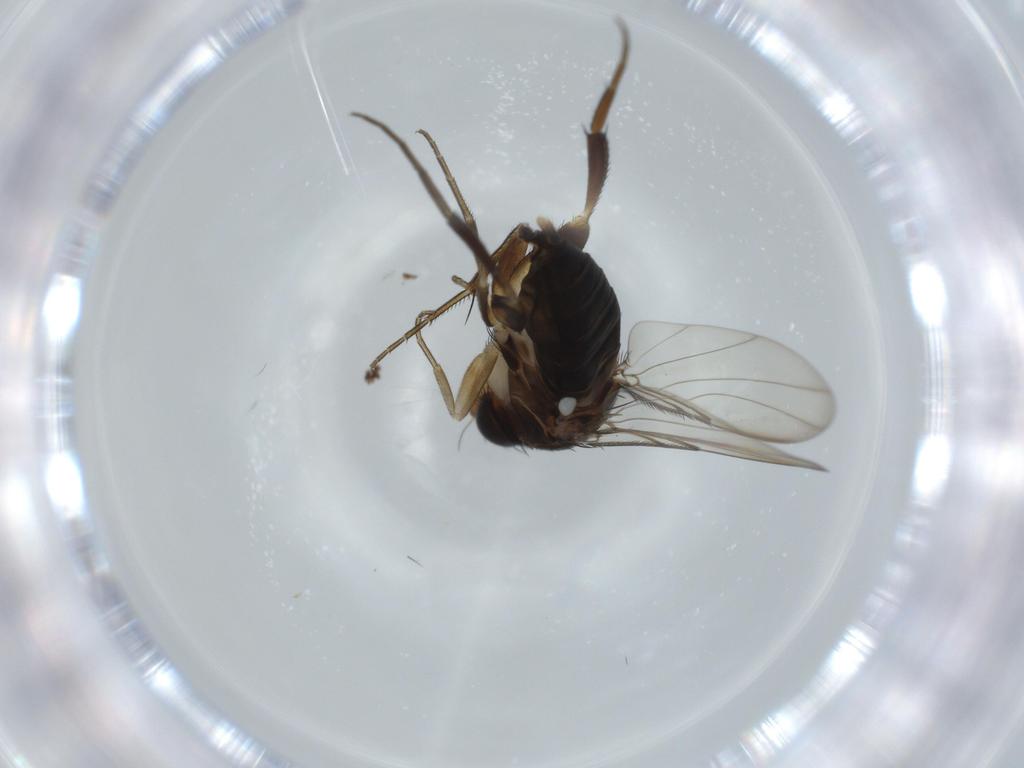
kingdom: Animalia
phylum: Arthropoda
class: Insecta
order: Diptera
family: Phoridae
